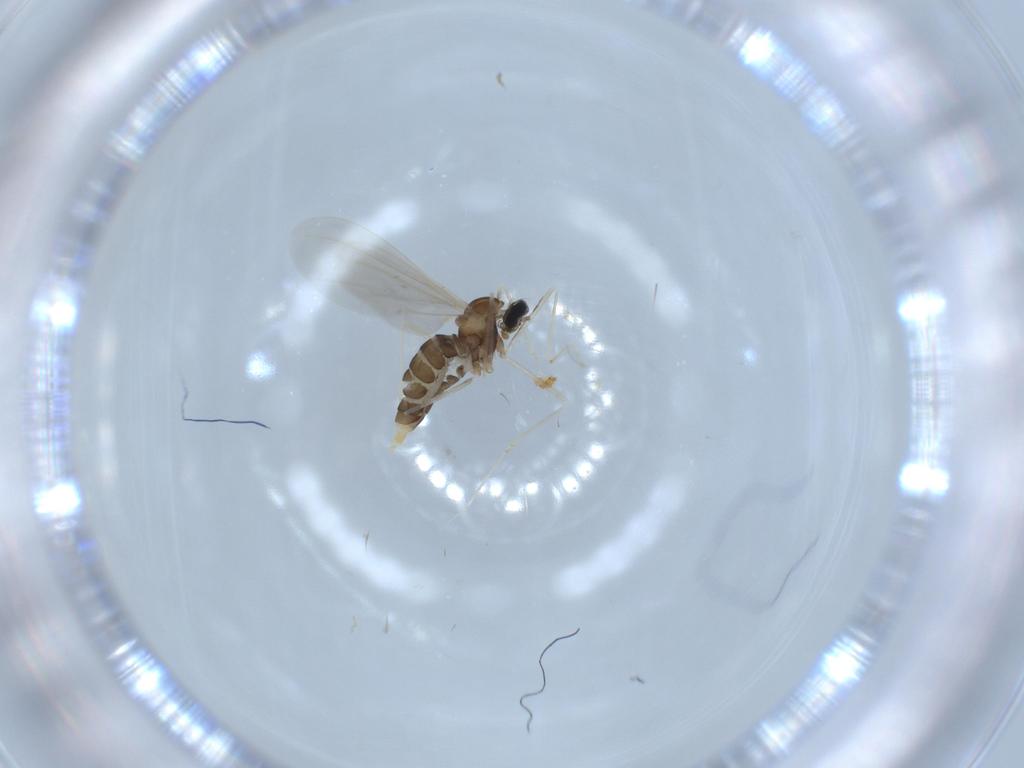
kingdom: Animalia
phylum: Arthropoda
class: Insecta
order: Diptera
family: Cecidomyiidae
